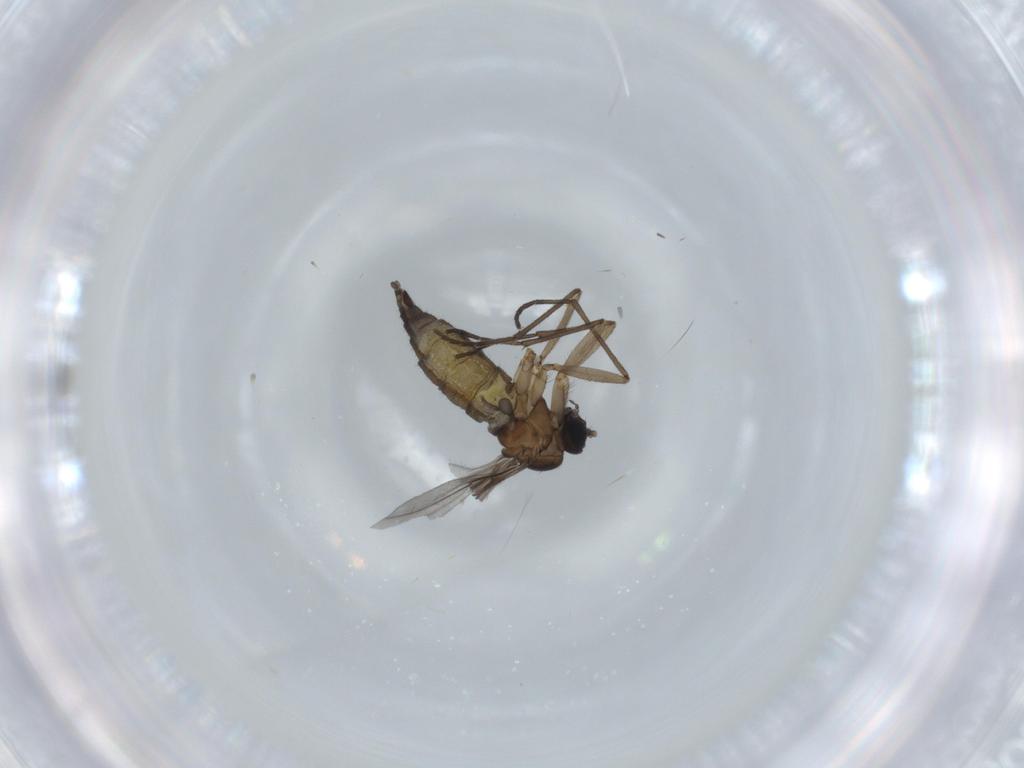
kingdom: Animalia
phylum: Arthropoda
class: Insecta
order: Diptera
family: Sciaridae
